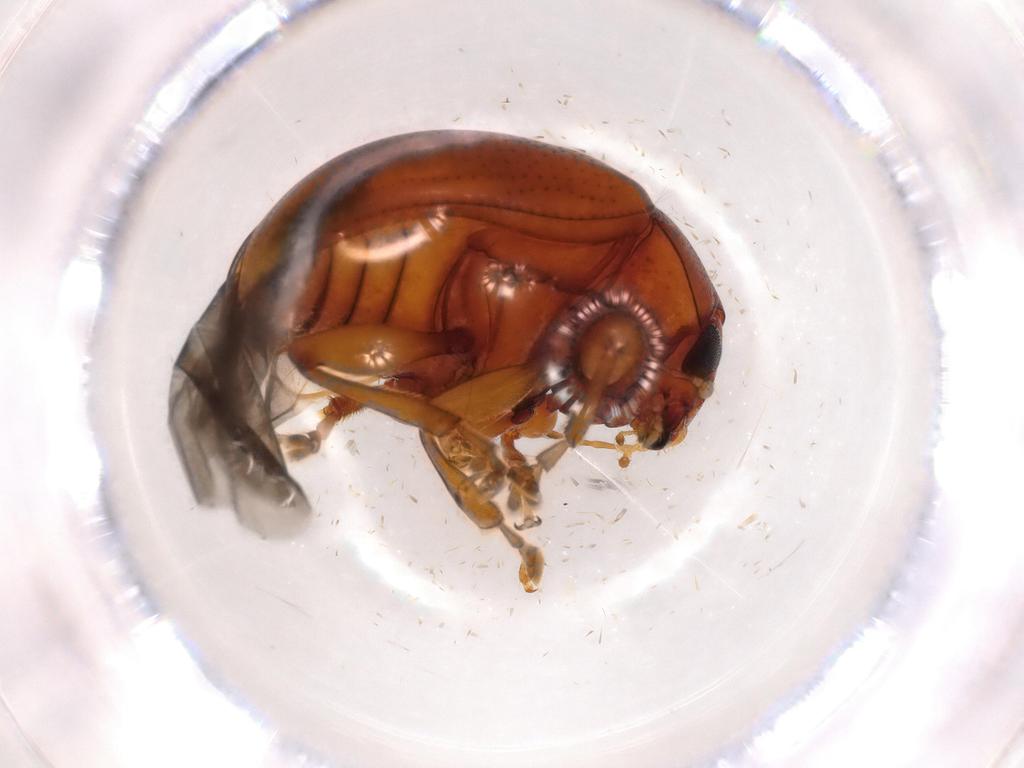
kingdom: Animalia
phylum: Arthropoda
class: Insecta
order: Coleoptera
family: Chrysomelidae
